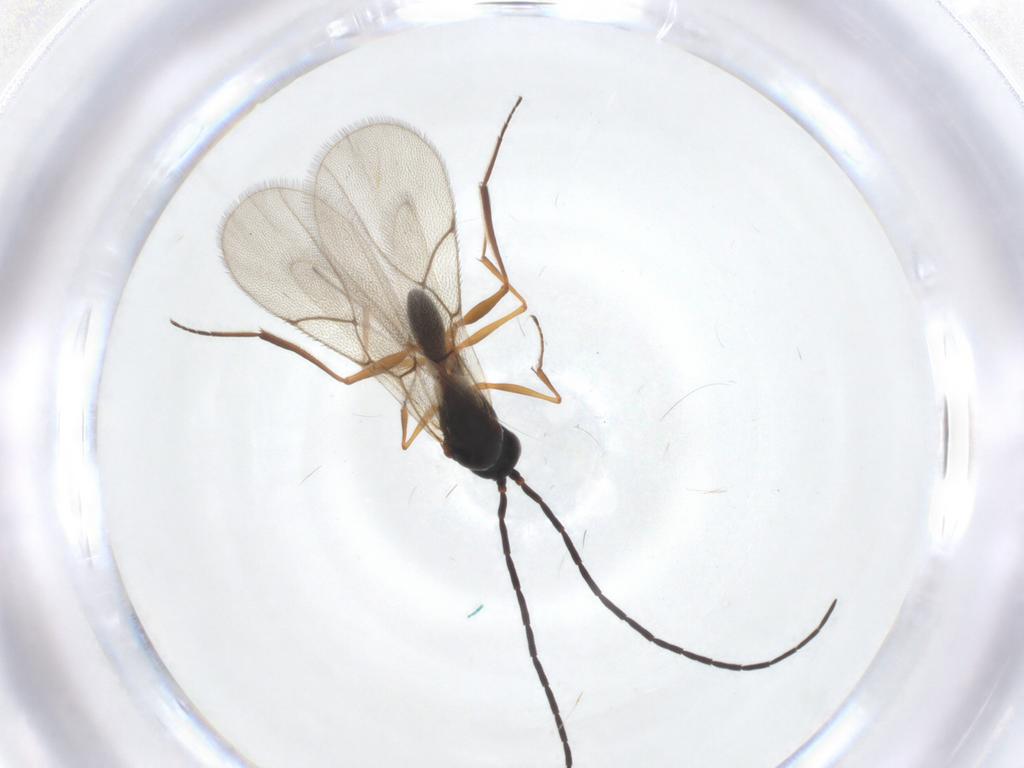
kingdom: Animalia
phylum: Arthropoda
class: Insecta
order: Hymenoptera
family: Figitidae
